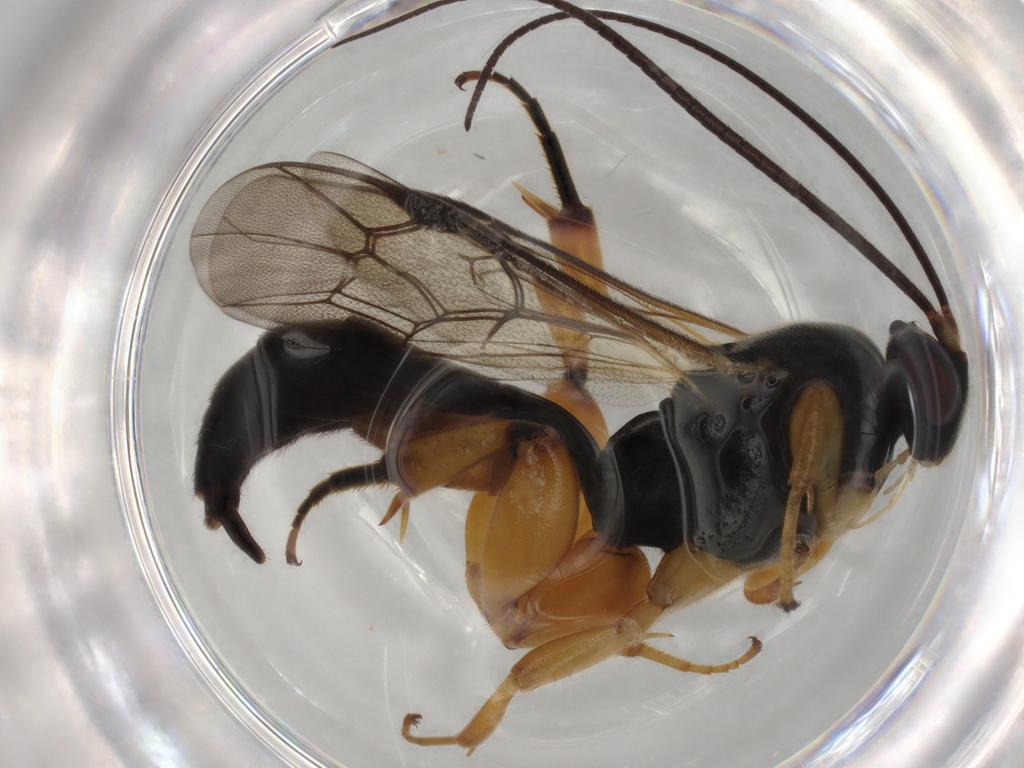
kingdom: Animalia
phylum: Arthropoda
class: Insecta
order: Hymenoptera
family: Ichneumonidae
